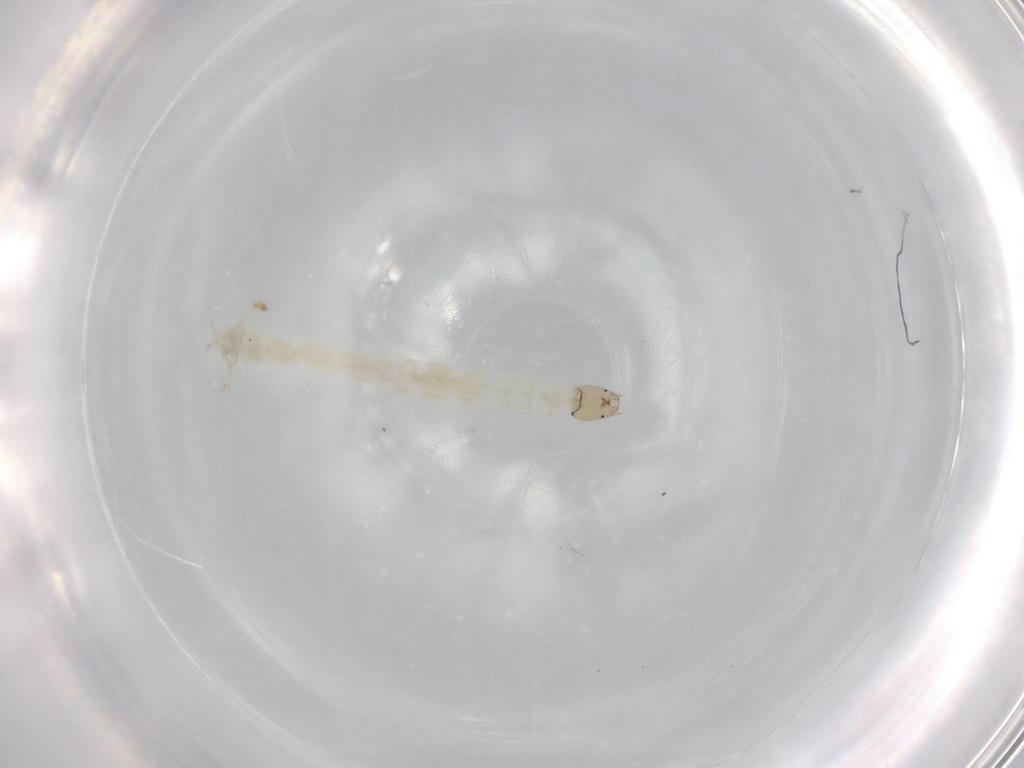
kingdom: Animalia
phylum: Arthropoda
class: Insecta
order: Diptera
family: Chironomidae
